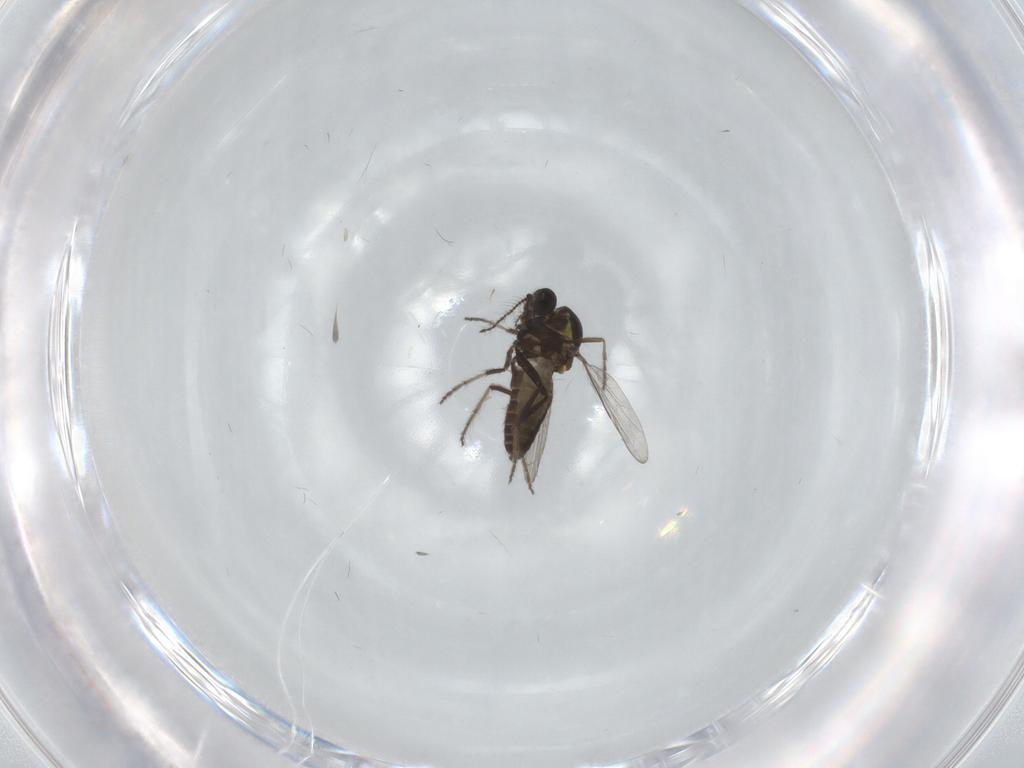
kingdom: Animalia
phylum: Arthropoda
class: Insecta
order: Diptera
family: Ceratopogonidae
